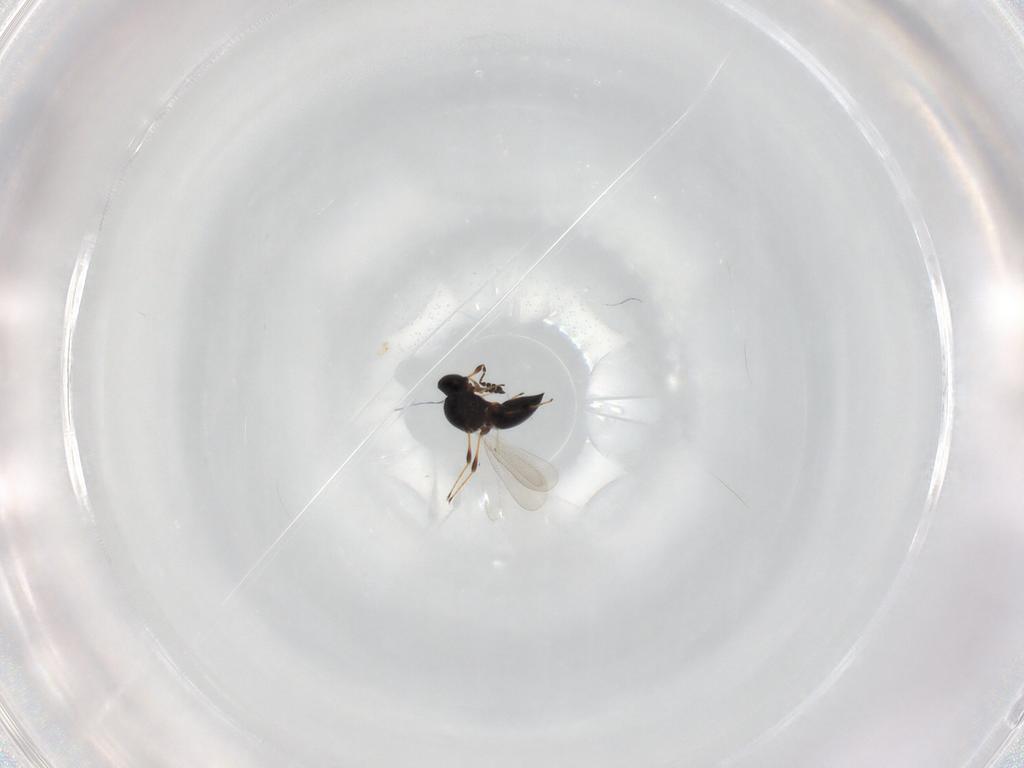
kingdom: Animalia
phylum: Arthropoda
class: Insecta
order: Hymenoptera
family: Platygastridae
